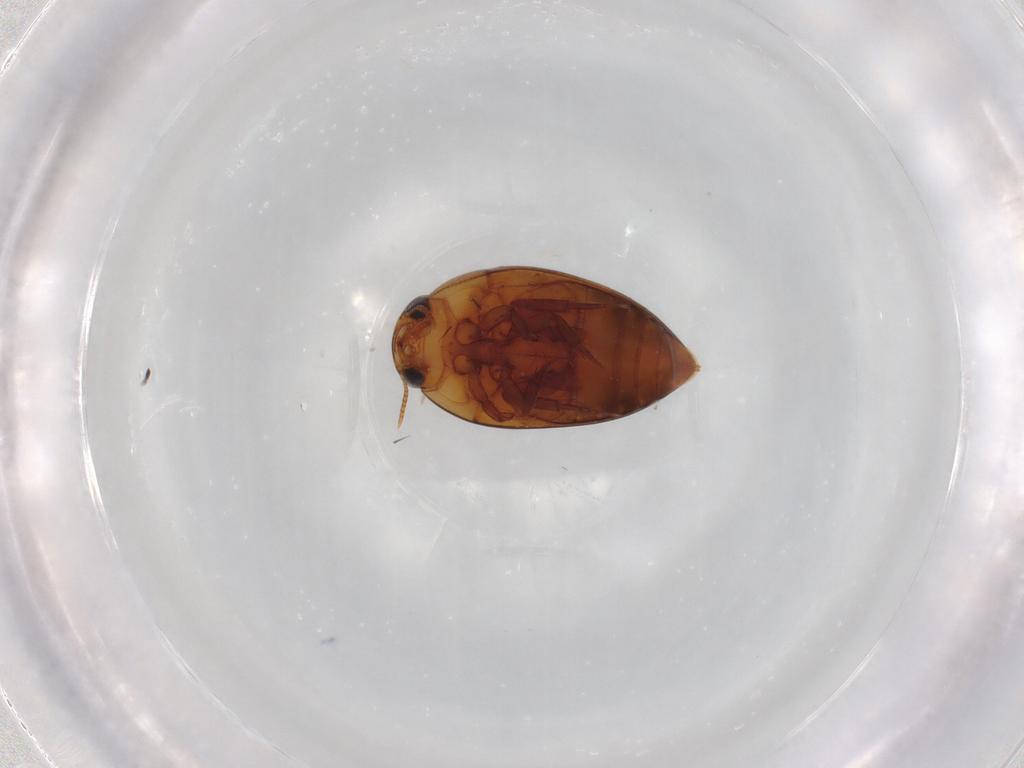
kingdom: Animalia
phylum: Arthropoda
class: Insecta
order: Coleoptera
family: Noteridae
